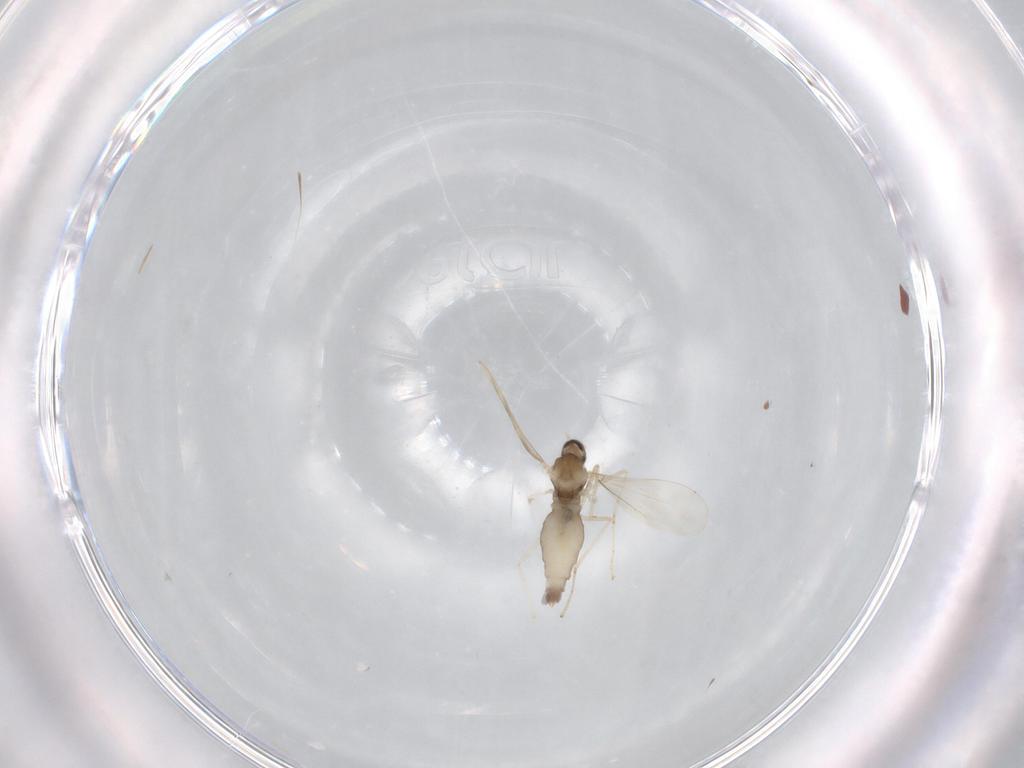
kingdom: Animalia
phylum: Arthropoda
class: Insecta
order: Diptera
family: Cecidomyiidae
